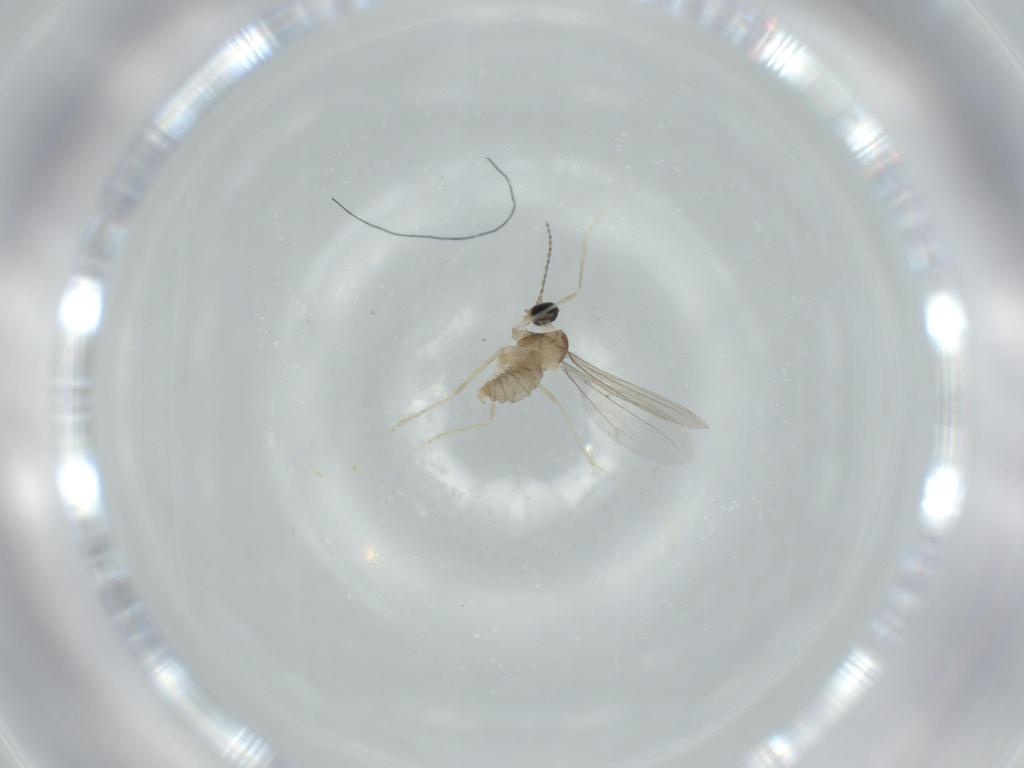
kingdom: Animalia
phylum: Arthropoda
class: Insecta
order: Diptera
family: Cecidomyiidae
